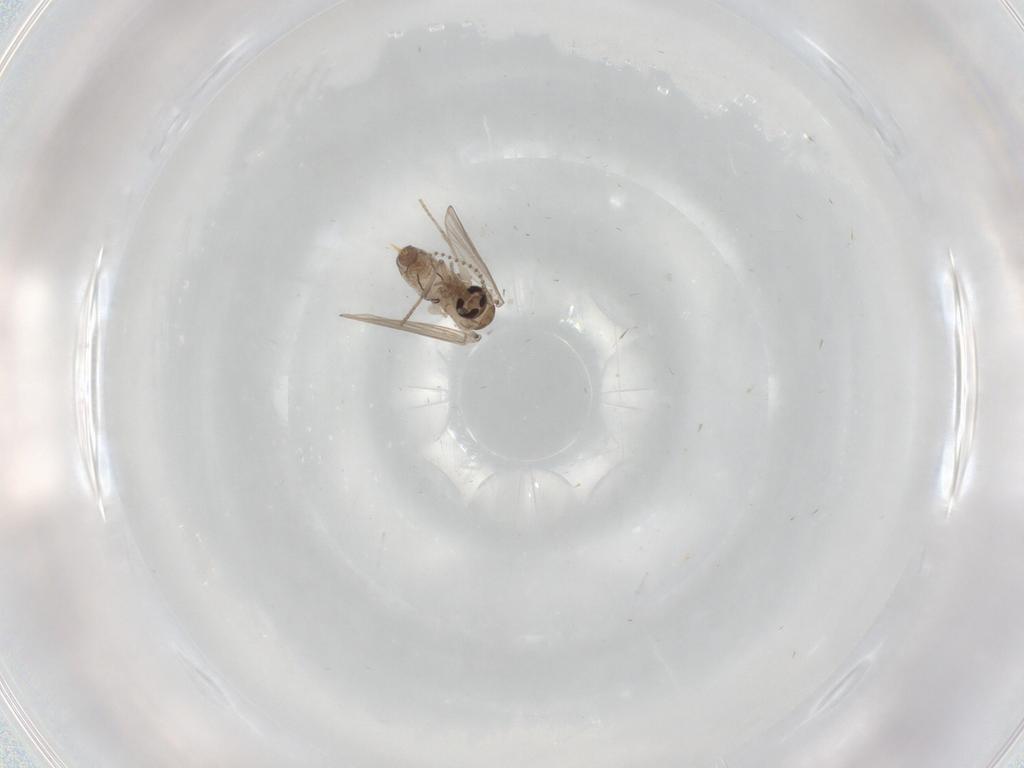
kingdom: Animalia
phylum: Arthropoda
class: Insecta
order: Diptera
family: Psychodidae
